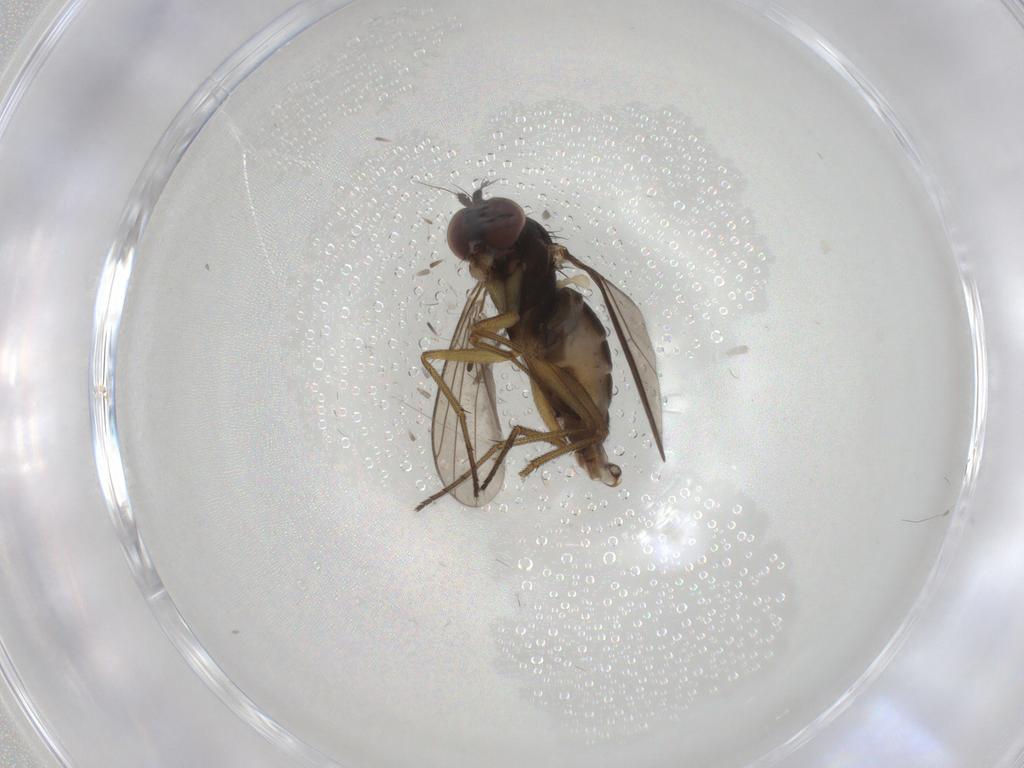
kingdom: Animalia
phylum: Arthropoda
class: Insecta
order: Diptera
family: Dolichopodidae
